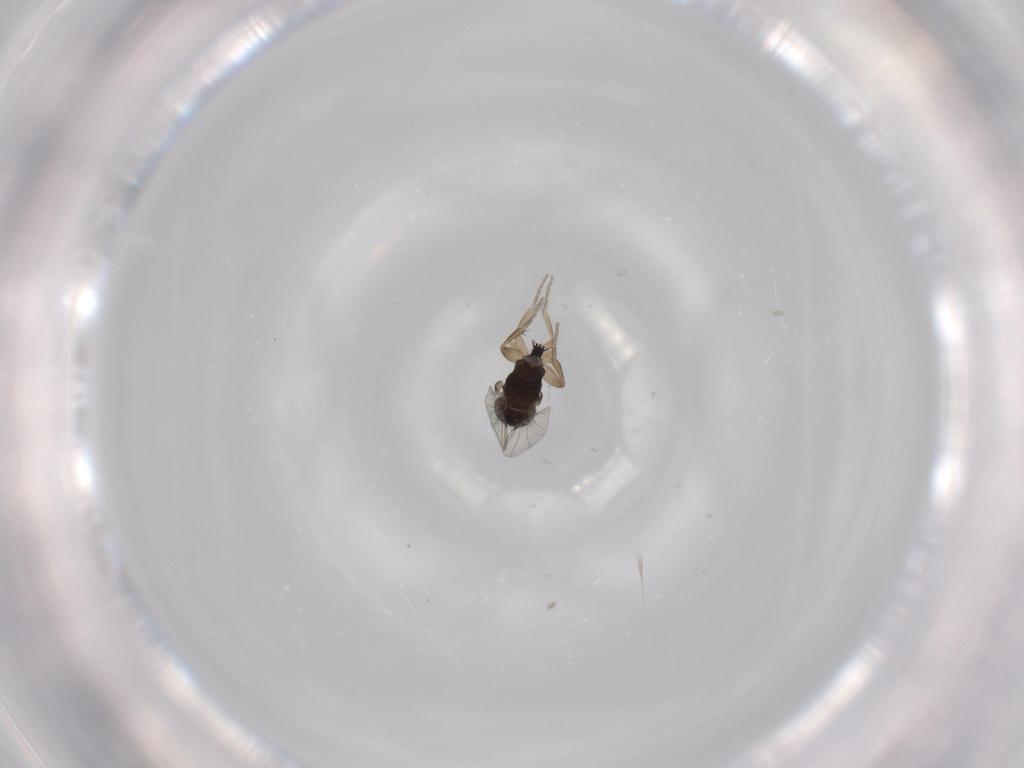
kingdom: Animalia
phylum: Arthropoda
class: Insecta
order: Diptera
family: Phoridae
